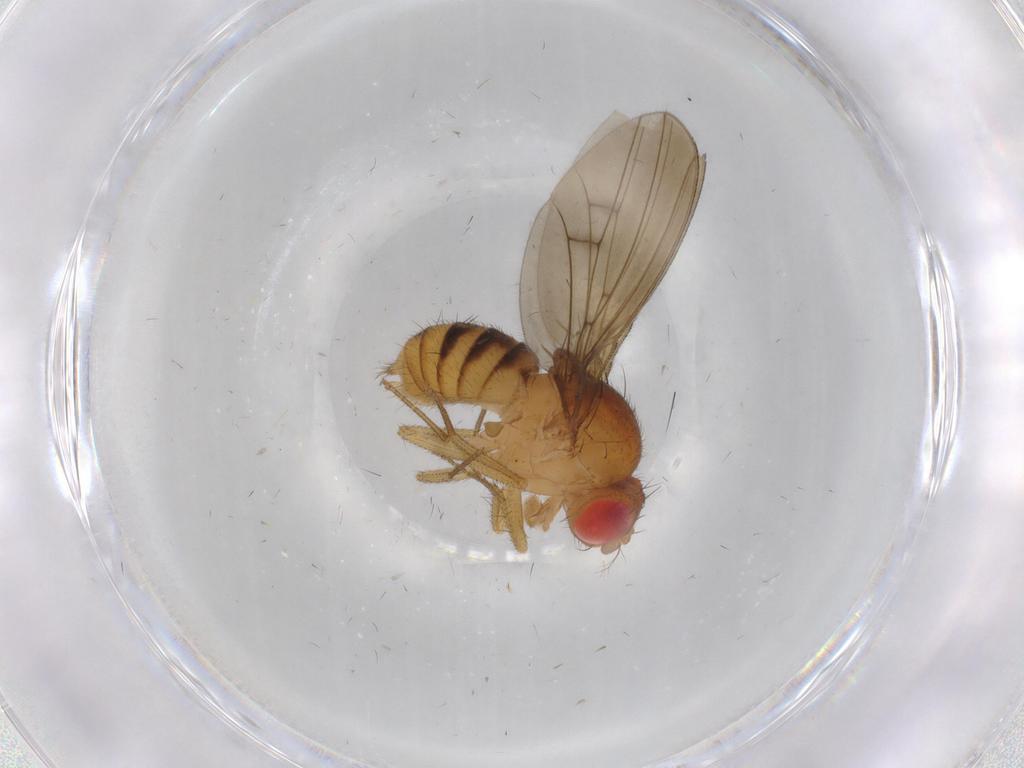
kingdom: Animalia
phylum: Arthropoda
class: Insecta
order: Diptera
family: Drosophilidae
